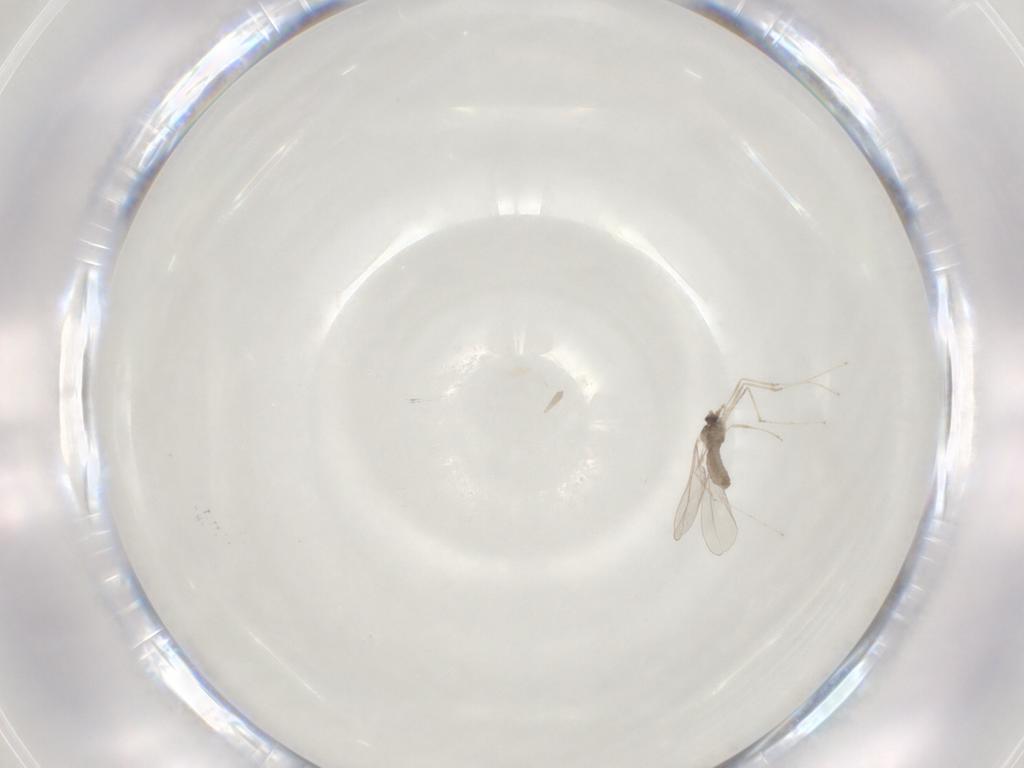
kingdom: Animalia
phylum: Arthropoda
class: Insecta
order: Diptera
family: Cecidomyiidae
